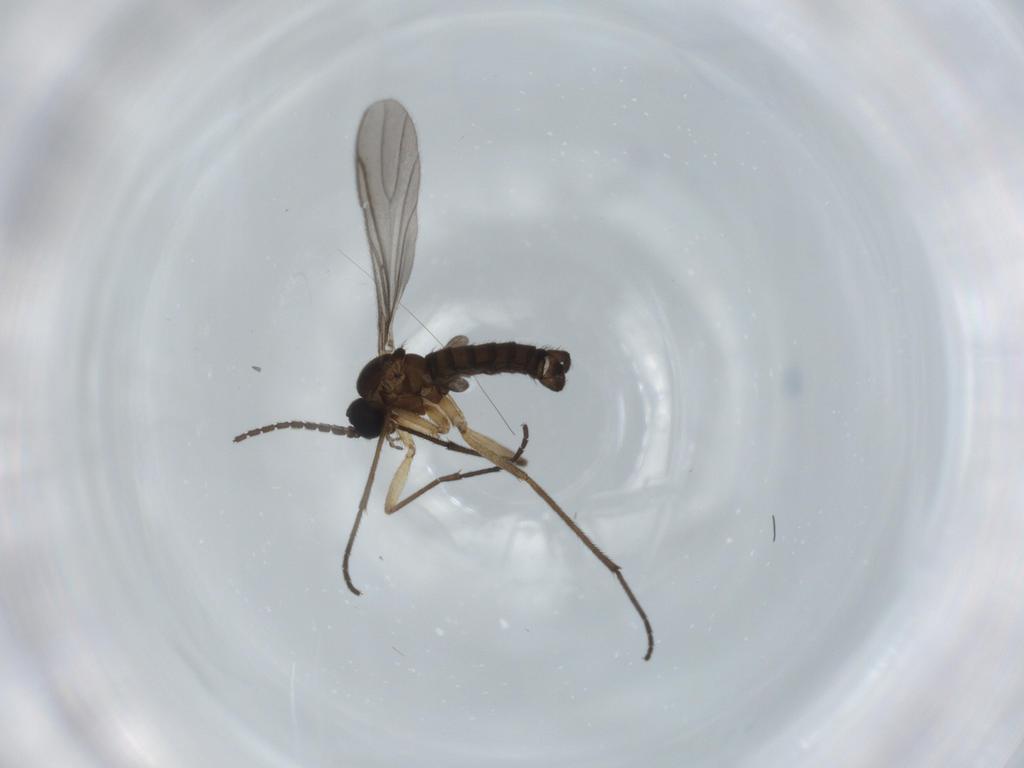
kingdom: Animalia
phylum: Arthropoda
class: Insecta
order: Diptera
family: Sciaridae
